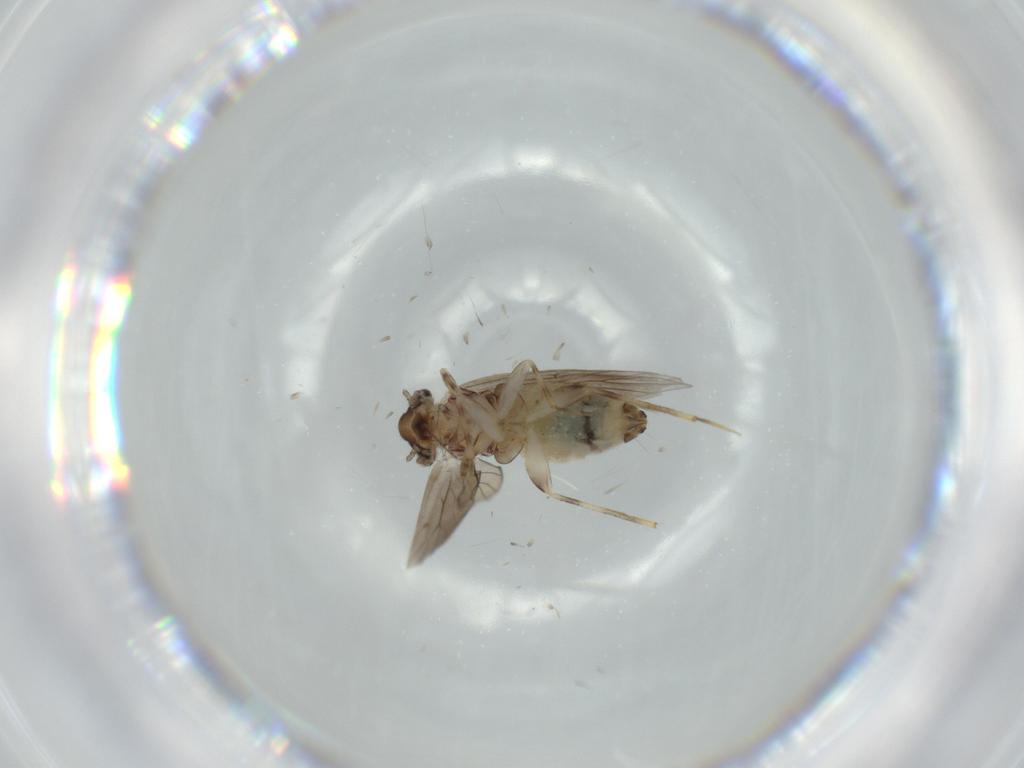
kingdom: Animalia
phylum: Arthropoda
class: Insecta
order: Psocodea
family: Lepidopsocidae
